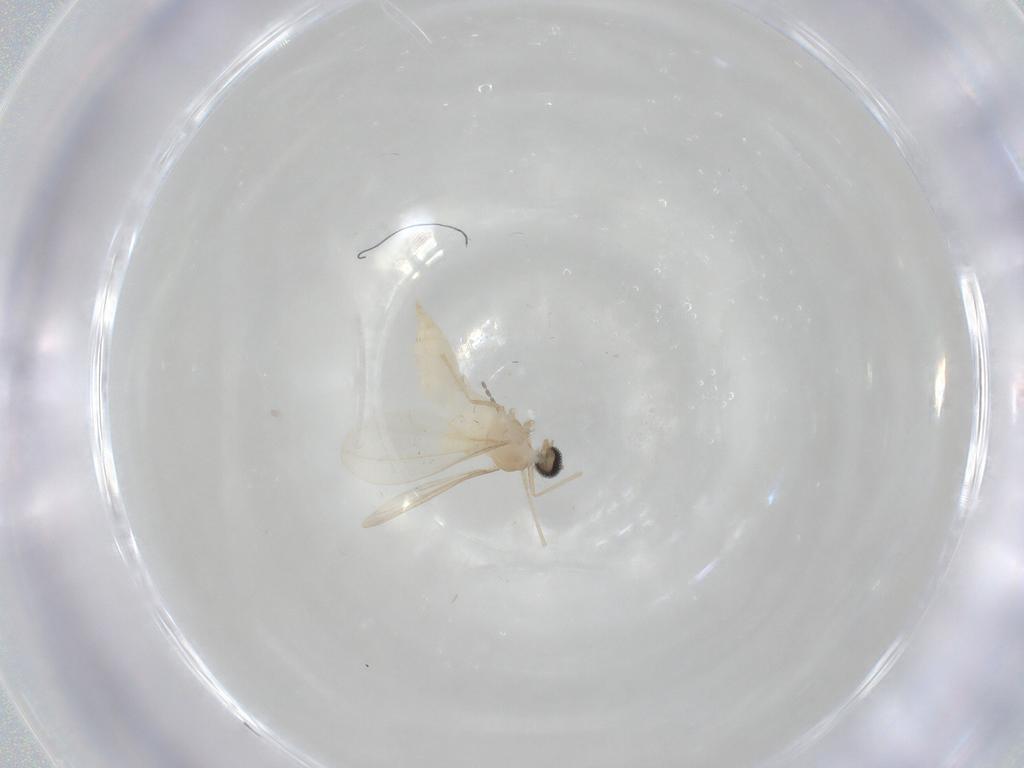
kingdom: Animalia
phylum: Arthropoda
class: Insecta
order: Diptera
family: Cecidomyiidae
